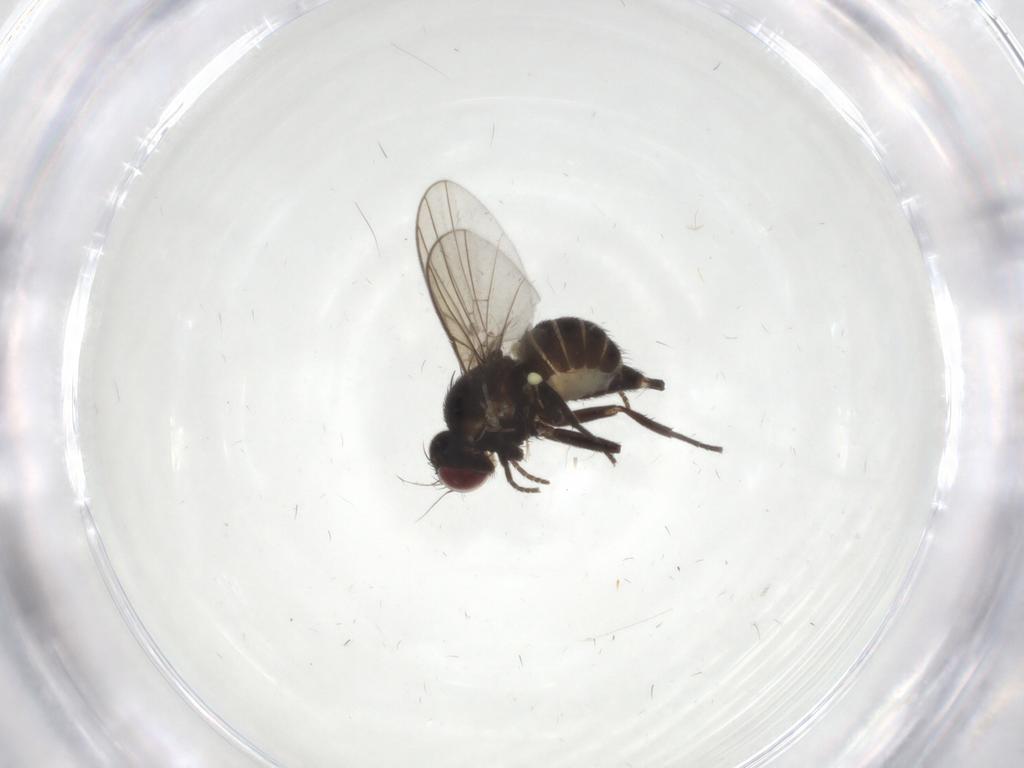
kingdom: Animalia
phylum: Arthropoda
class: Insecta
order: Diptera
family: Agromyzidae
